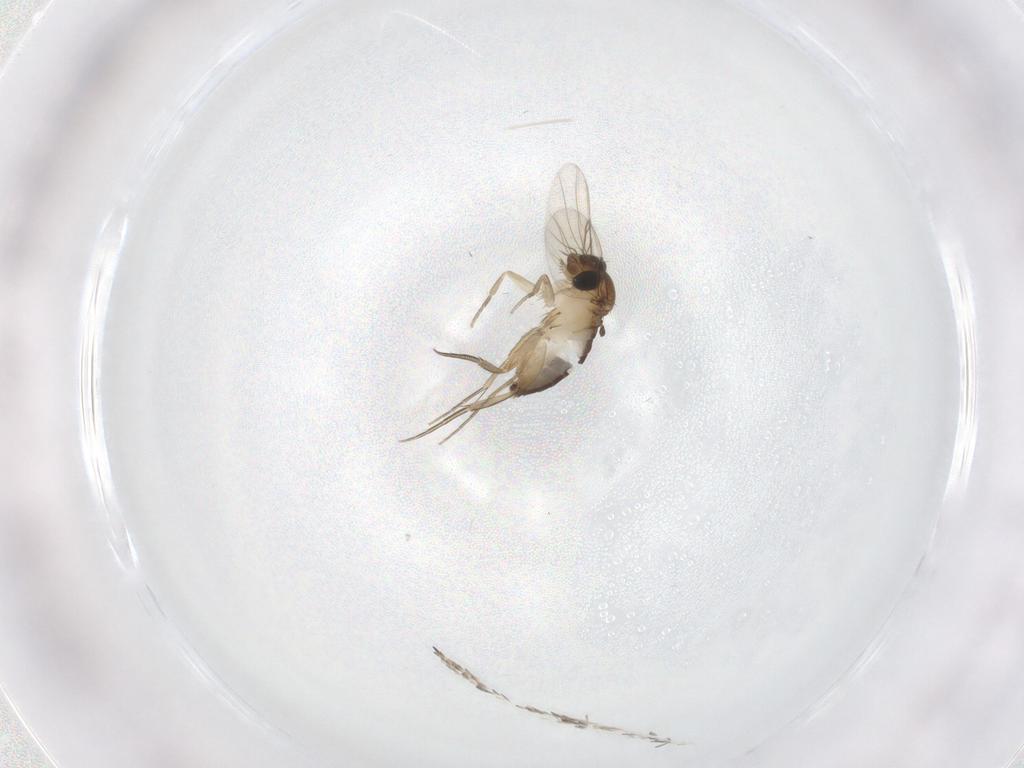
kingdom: Animalia
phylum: Arthropoda
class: Insecta
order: Diptera
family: Phoridae
